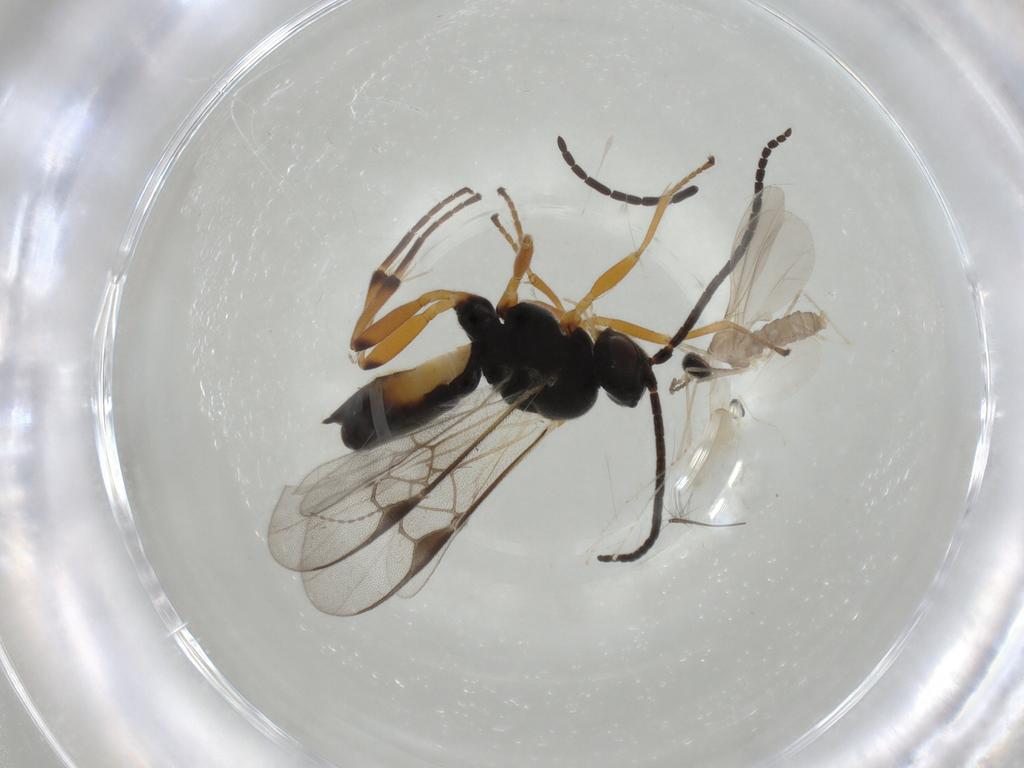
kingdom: Animalia
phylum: Arthropoda
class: Insecta
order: Hymenoptera
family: Braconidae
